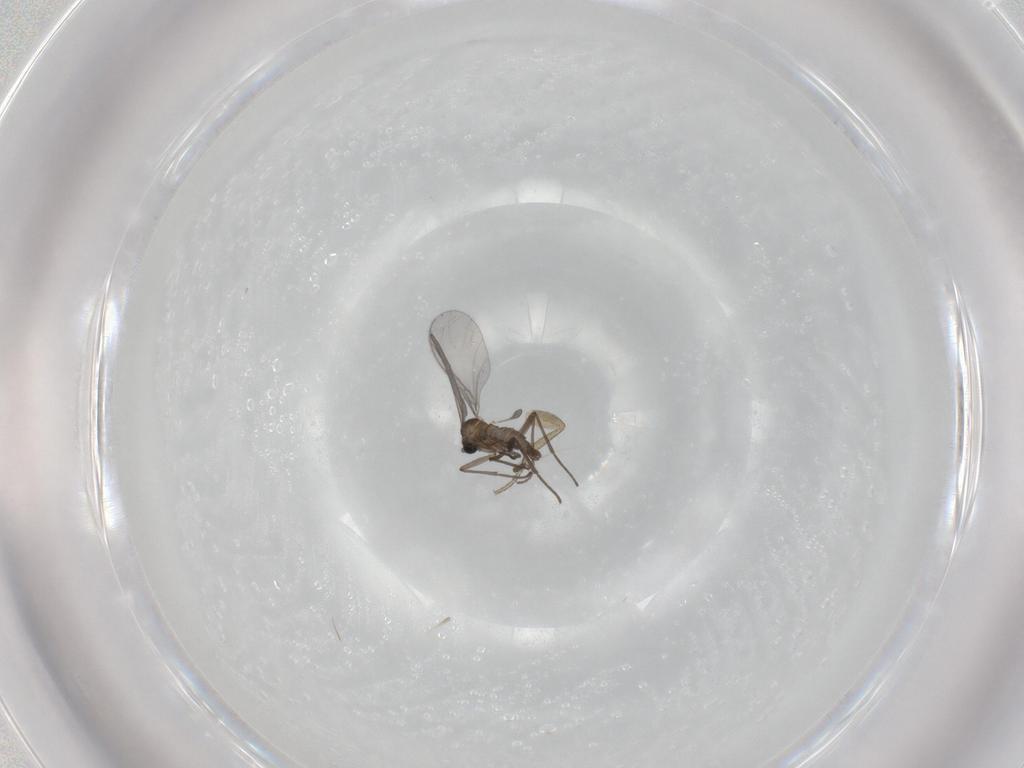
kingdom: Animalia
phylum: Arthropoda
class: Insecta
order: Diptera
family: Sciaridae
